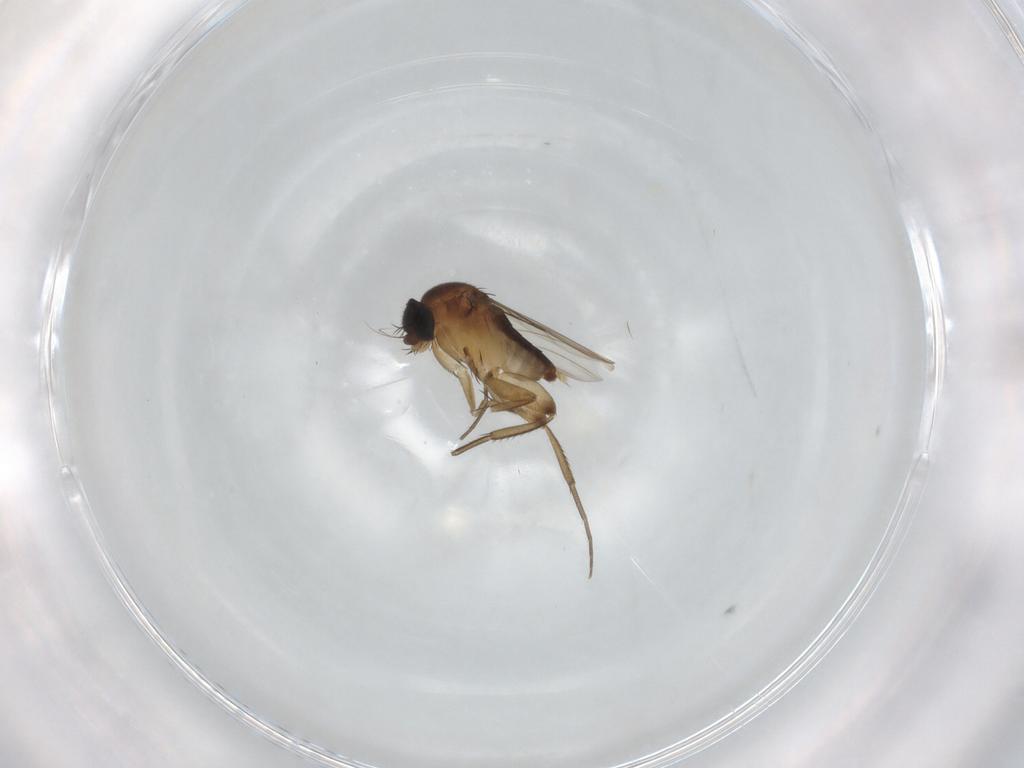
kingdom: Animalia
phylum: Arthropoda
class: Insecta
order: Diptera
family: Phoridae
